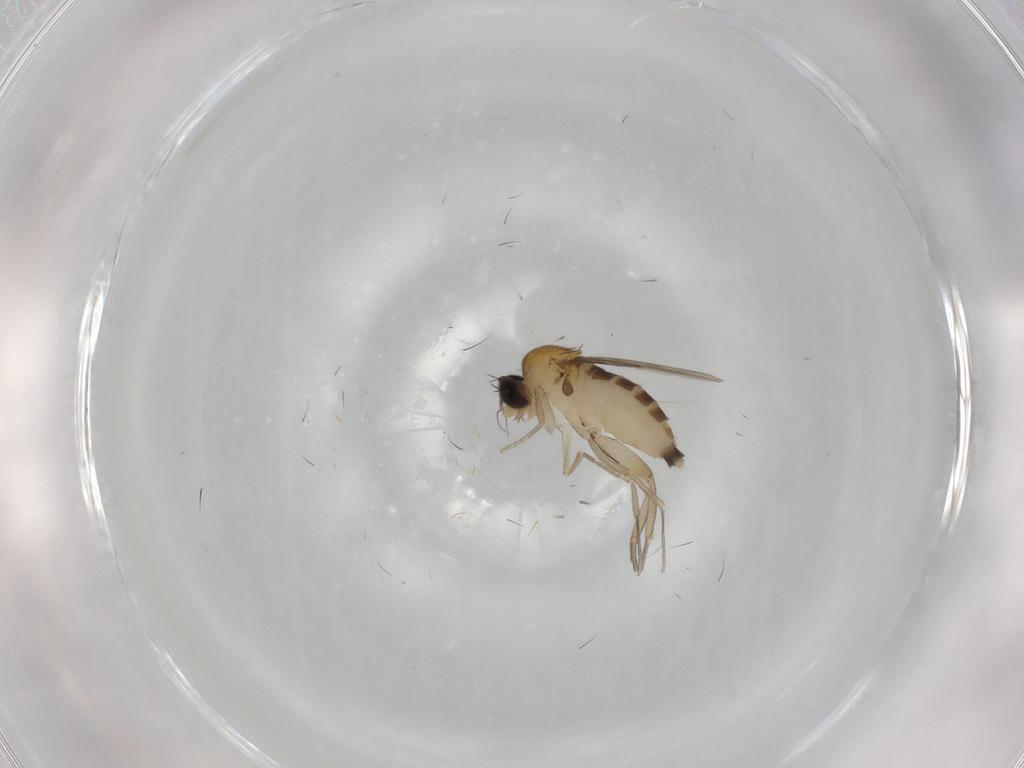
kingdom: Animalia
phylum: Arthropoda
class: Insecta
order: Diptera
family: Phoridae
